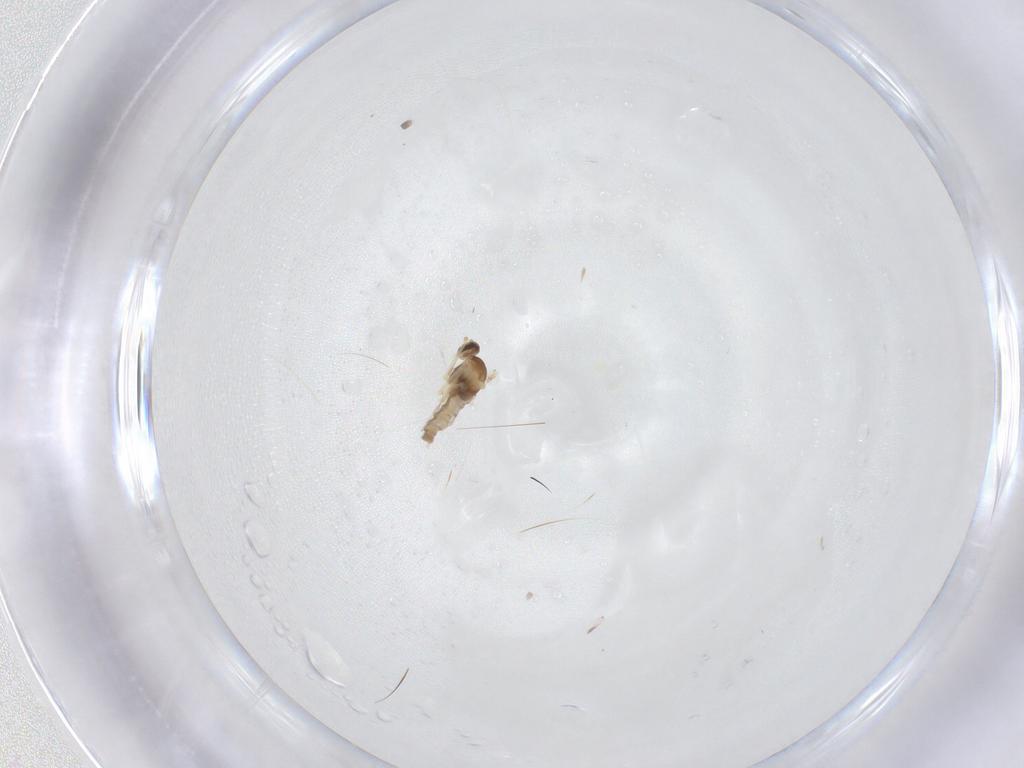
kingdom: Animalia
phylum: Arthropoda
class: Insecta
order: Diptera
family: Cecidomyiidae
